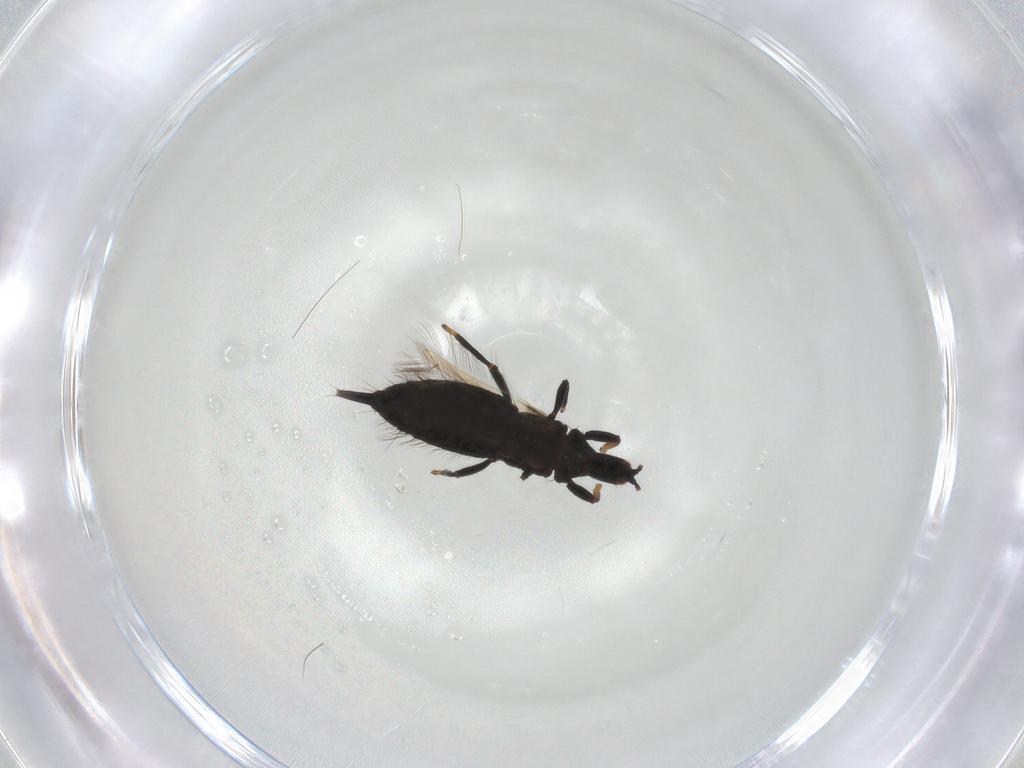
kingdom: Animalia
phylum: Arthropoda
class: Insecta
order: Thysanoptera
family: Phlaeothripidae
